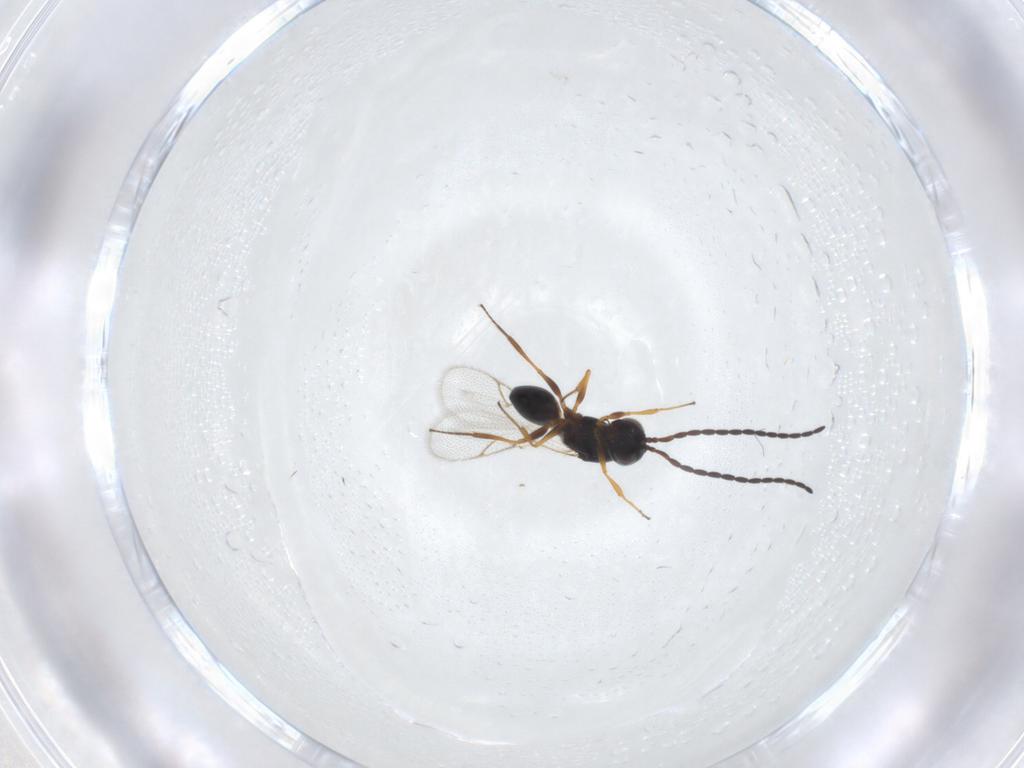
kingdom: Animalia
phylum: Arthropoda
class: Insecta
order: Hymenoptera
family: Figitidae
